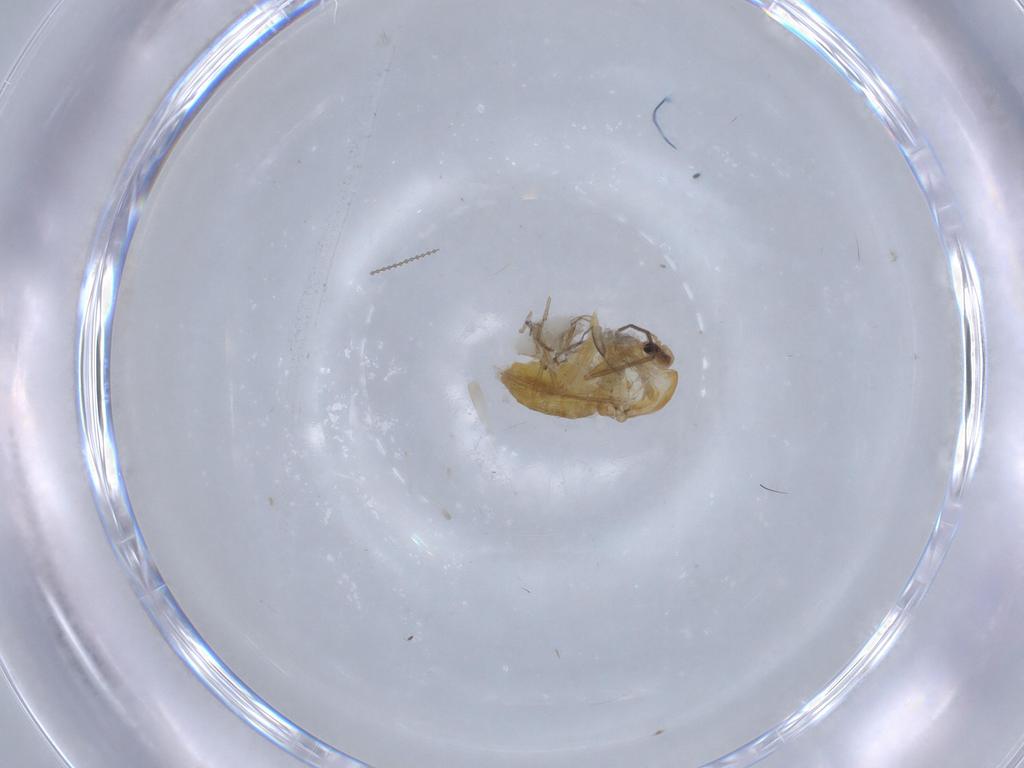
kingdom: Animalia
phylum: Arthropoda
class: Insecta
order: Diptera
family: Chironomidae
